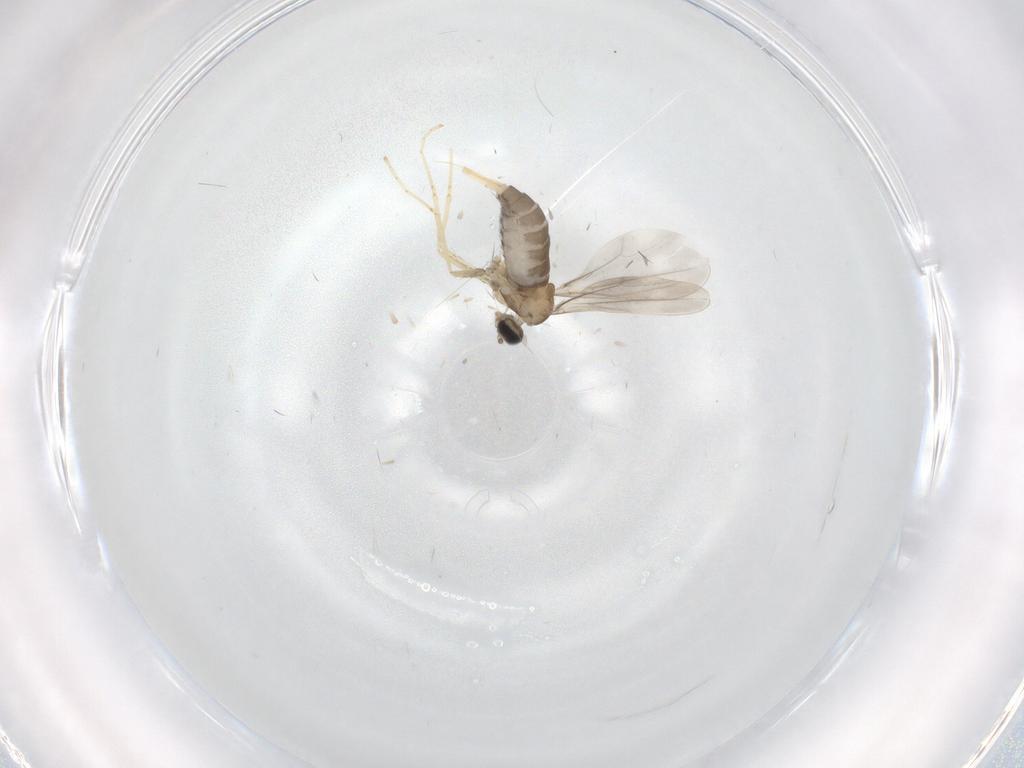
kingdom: Animalia
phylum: Arthropoda
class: Insecta
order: Diptera
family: Cecidomyiidae
